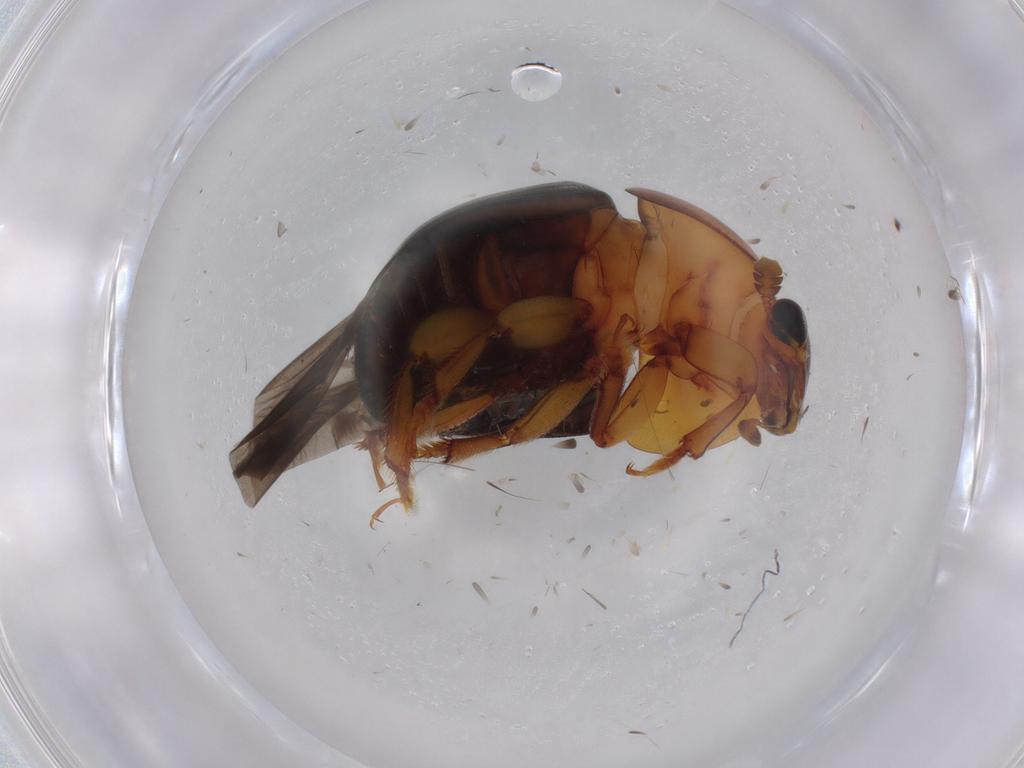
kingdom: Animalia
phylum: Arthropoda
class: Insecta
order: Coleoptera
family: Nitidulidae
